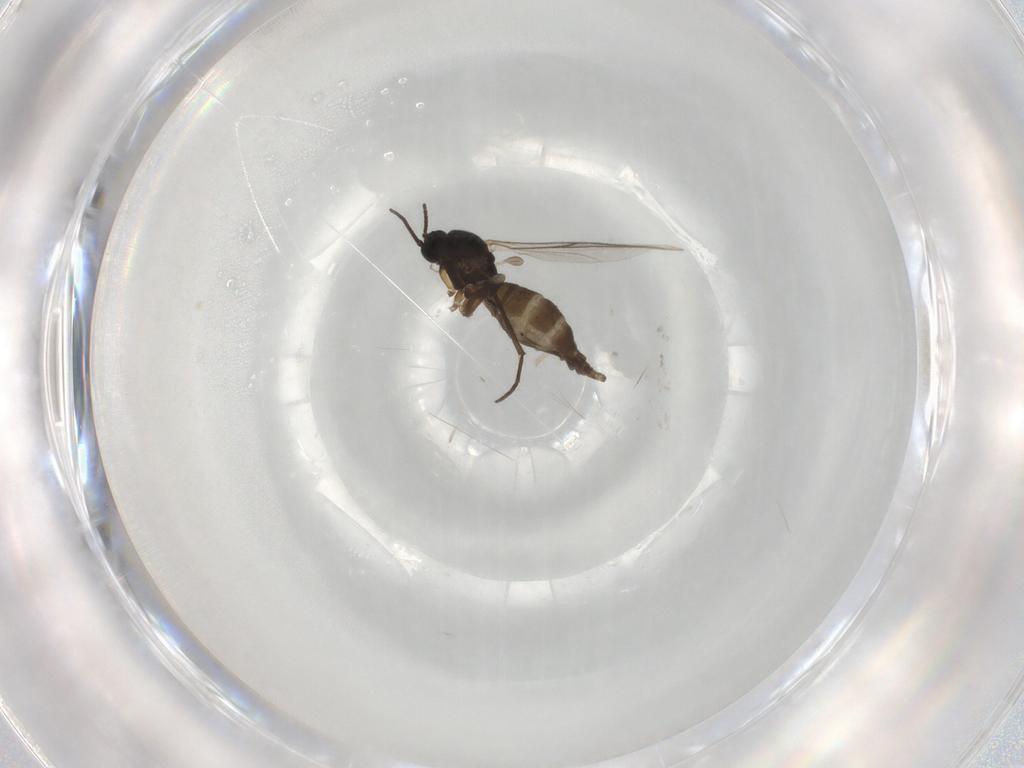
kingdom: Animalia
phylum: Arthropoda
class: Insecta
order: Diptera
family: Sciaridae
